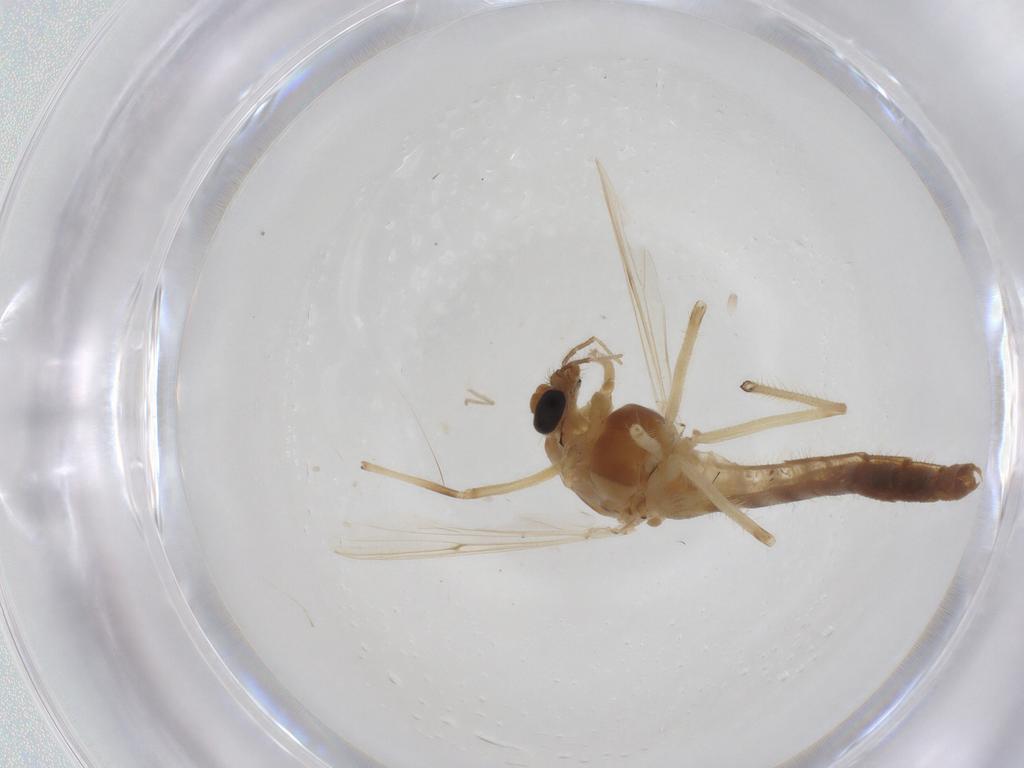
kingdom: Animalia
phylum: Arthropoda
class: Insecta
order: Diptera
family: Chironomidae
